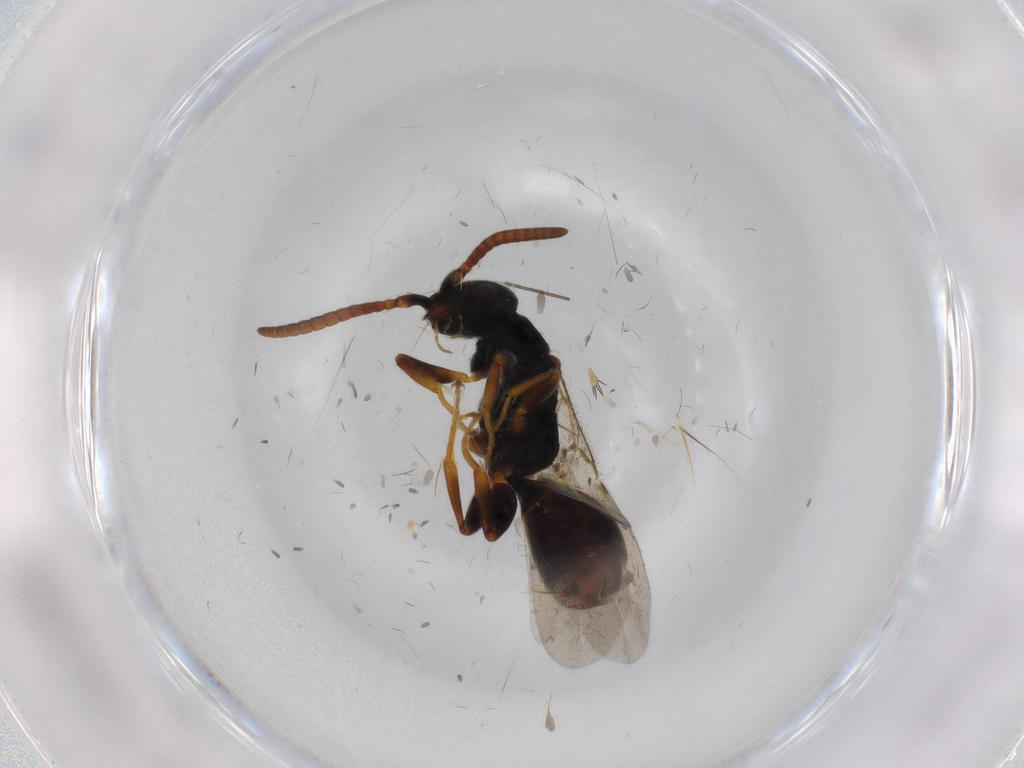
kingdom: Animalia
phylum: Arthropoda
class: Insecta
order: Hymenoptera
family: Bethylidae
